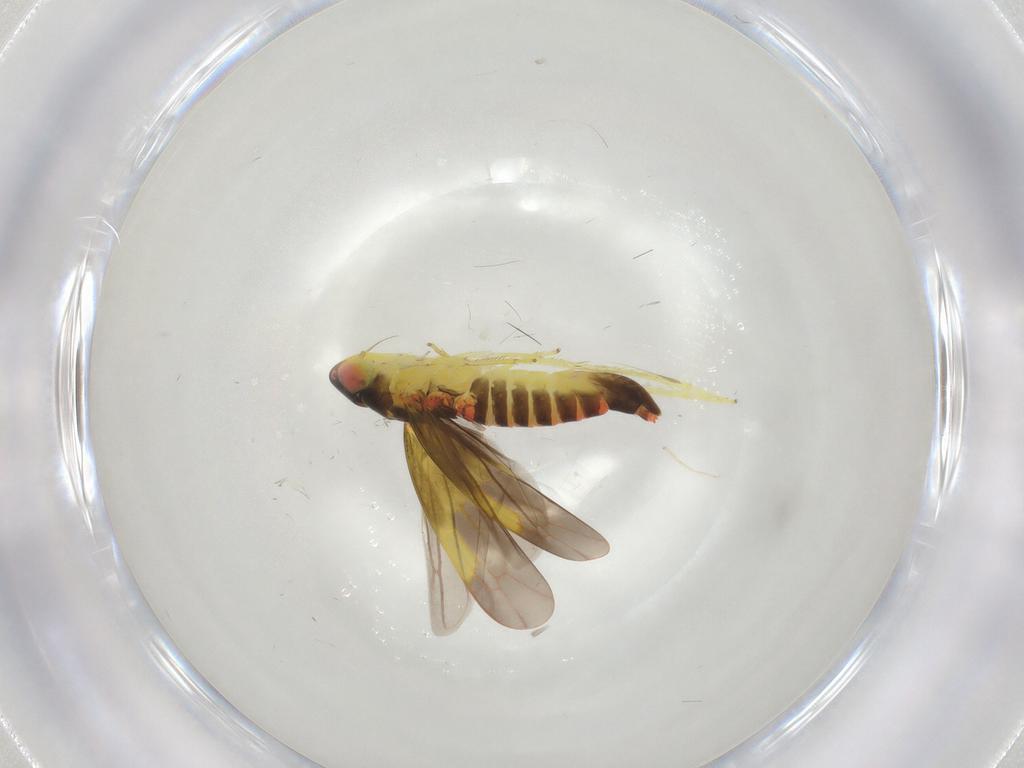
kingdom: Animalia
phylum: Arthropoda
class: Insecta
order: Hemiptera
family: Cicadellidae
